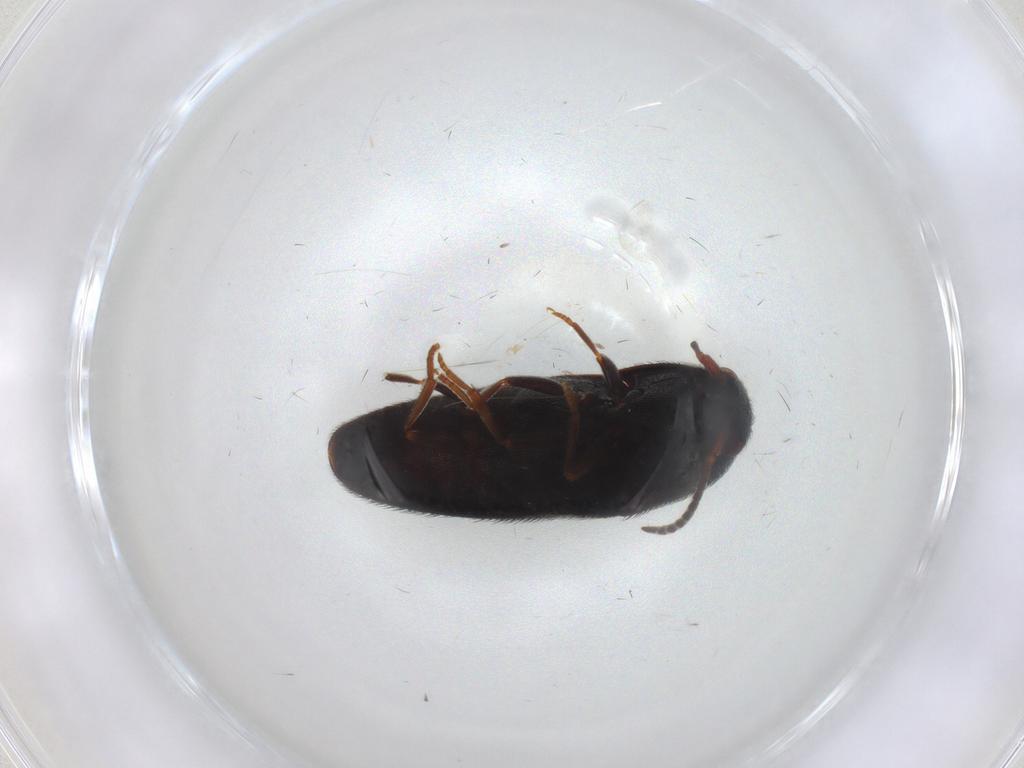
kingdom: Animalia
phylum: Arthropoda
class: Insecta
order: Coleoptera
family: Eucnemidae
